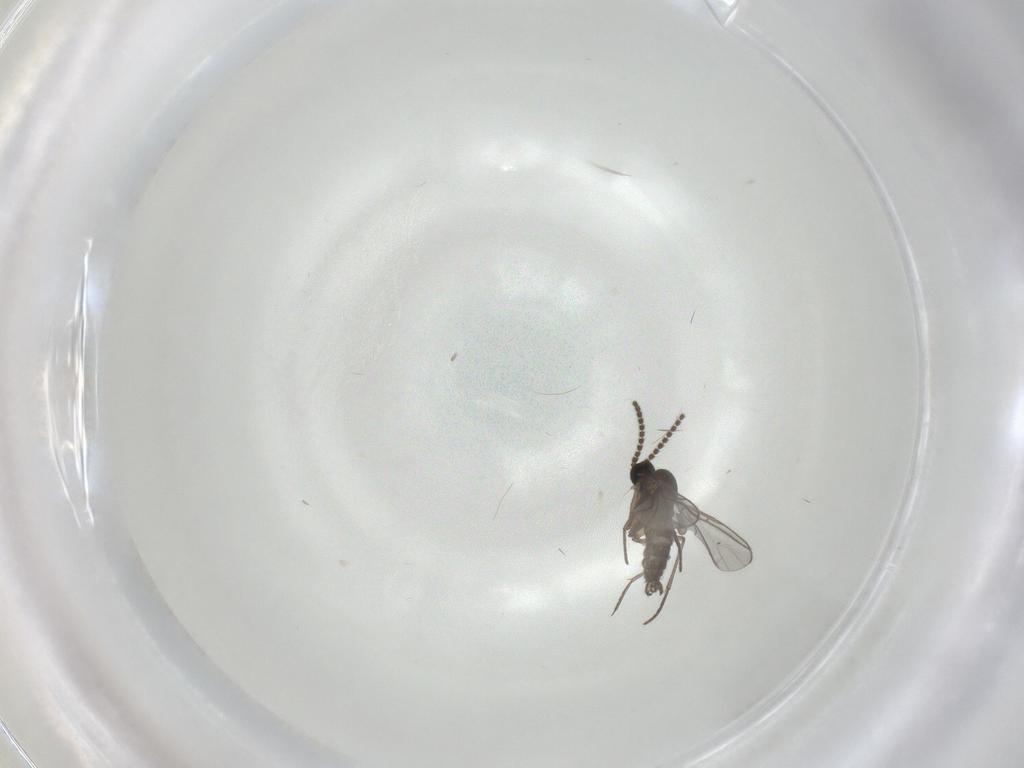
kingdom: Animalia
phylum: Arthropoda
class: Insecta
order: Diptera
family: Sciaridae
